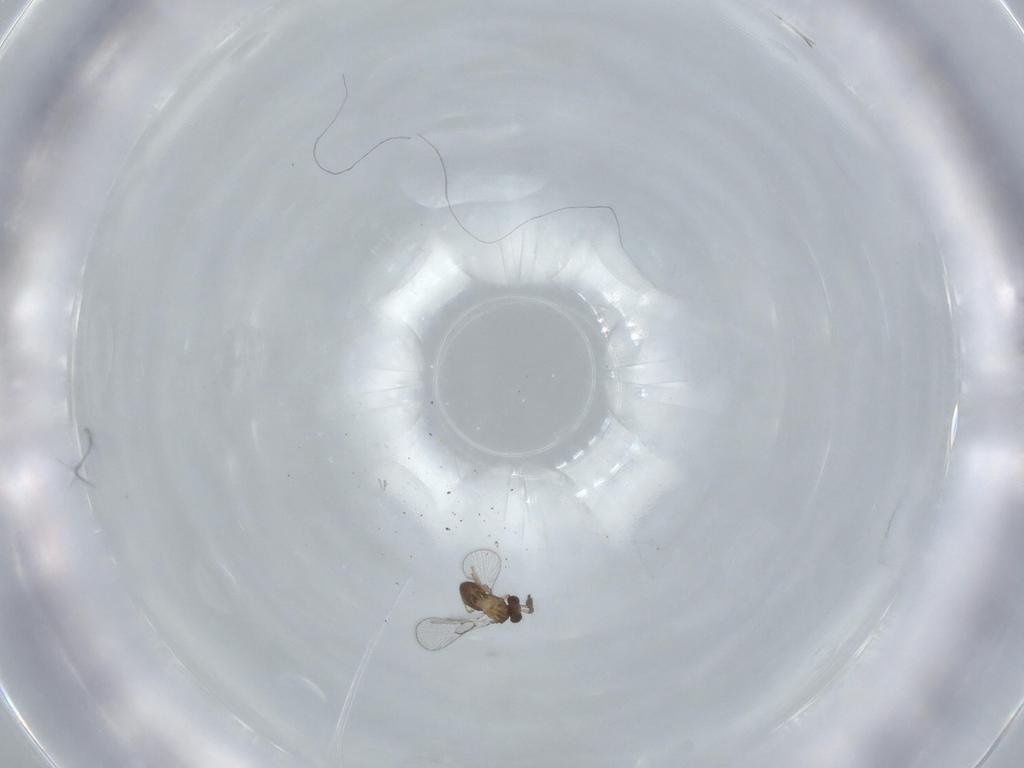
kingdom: Animalia
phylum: Arthropoda
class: Insecta
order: Hymenoptera
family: Trichogrammatidae
